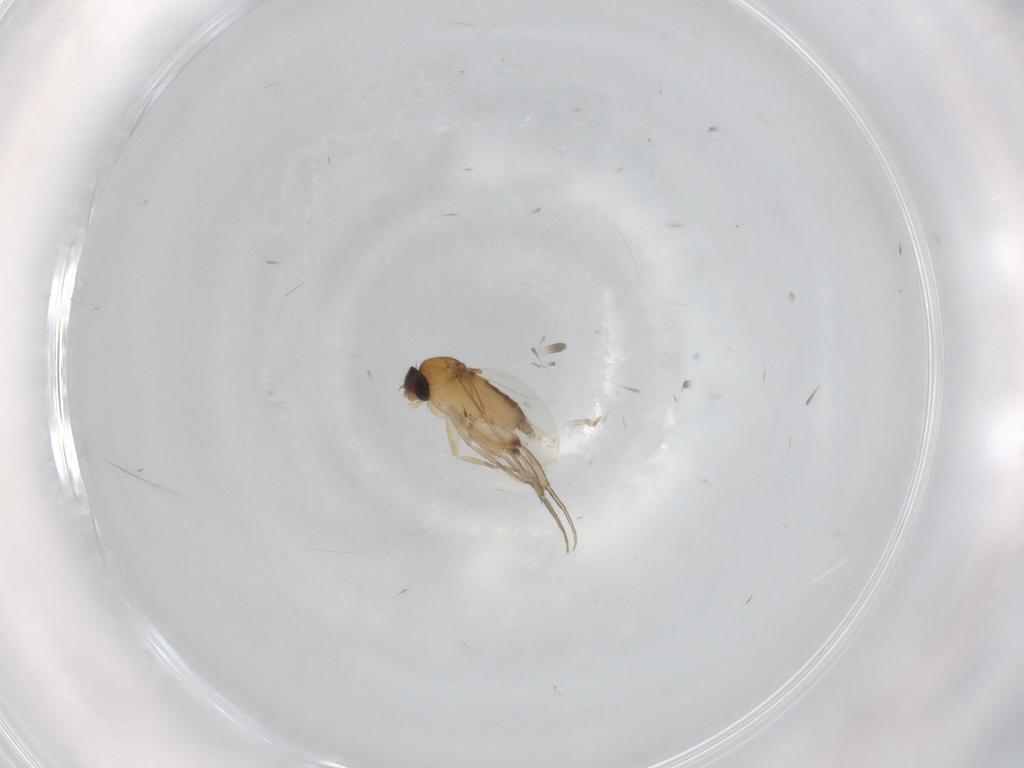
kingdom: Animalia
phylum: Arthropoda
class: Insecta
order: Diptera
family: Phoridae
